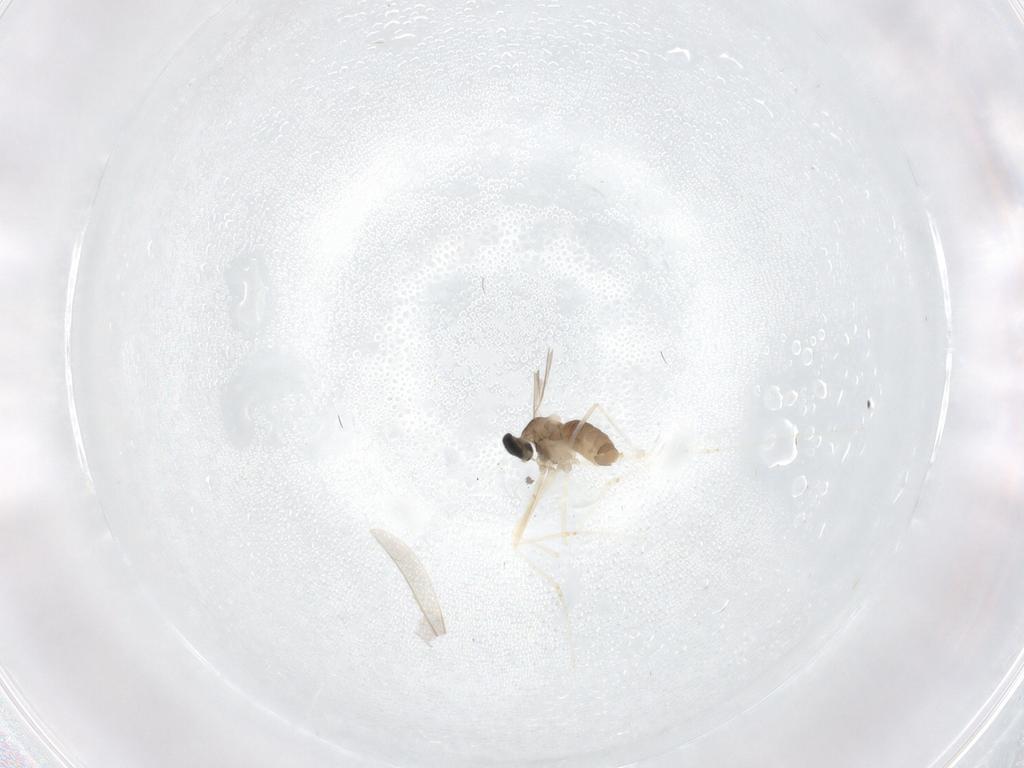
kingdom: Animalia
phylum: Arthropoda
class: Insecta
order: Diptera
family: Cecidomyiidae
